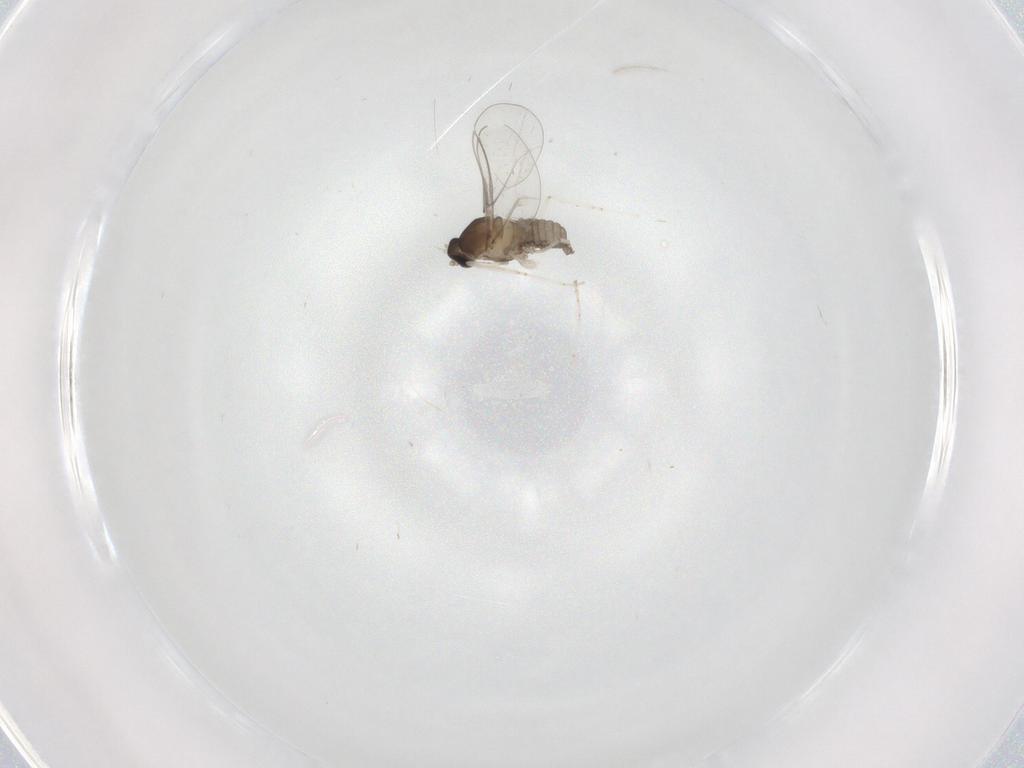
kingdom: Animalia
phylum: Arthropoda
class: Insecta
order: Diptera
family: Cecidomyiidae
